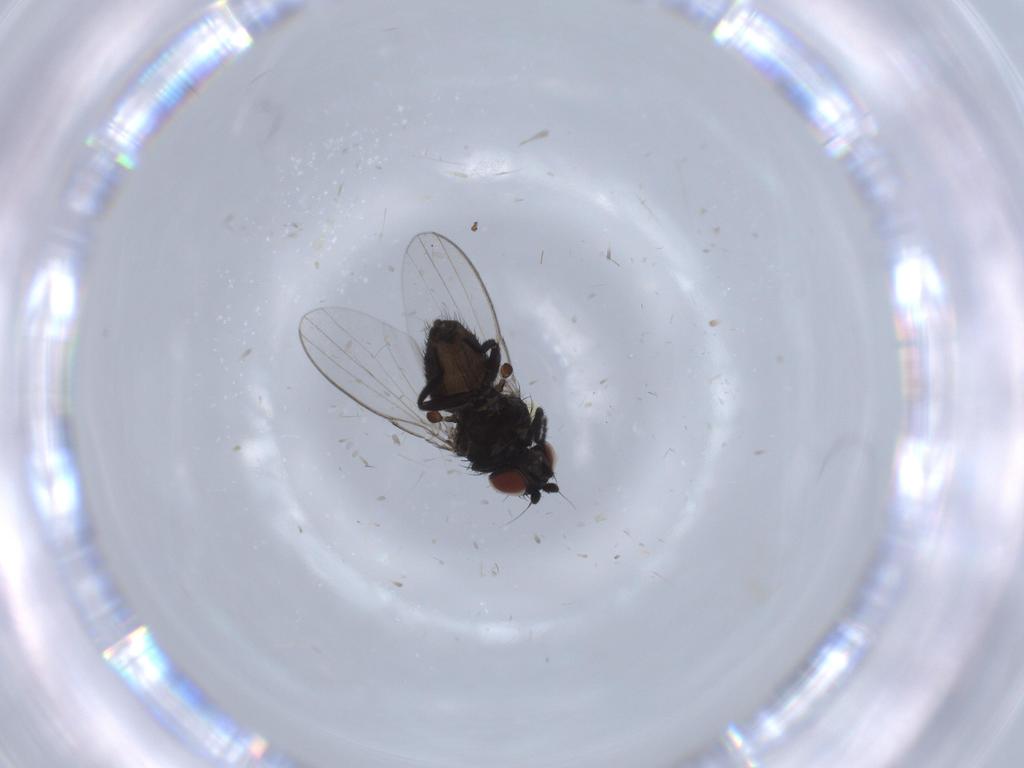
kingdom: Animalia
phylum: Arthropoda
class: Insecta
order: Diptera
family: Milichiidae
